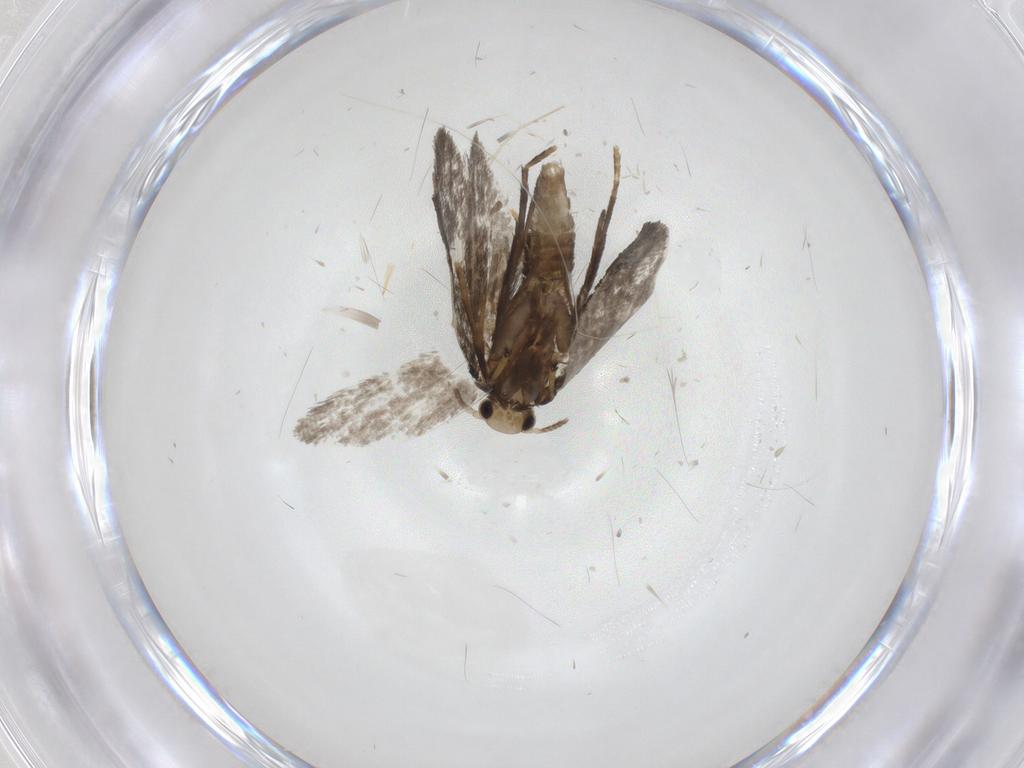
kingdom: Animalia
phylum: Arthropoda
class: Insecta
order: Lepidoptera
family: Psychidae
